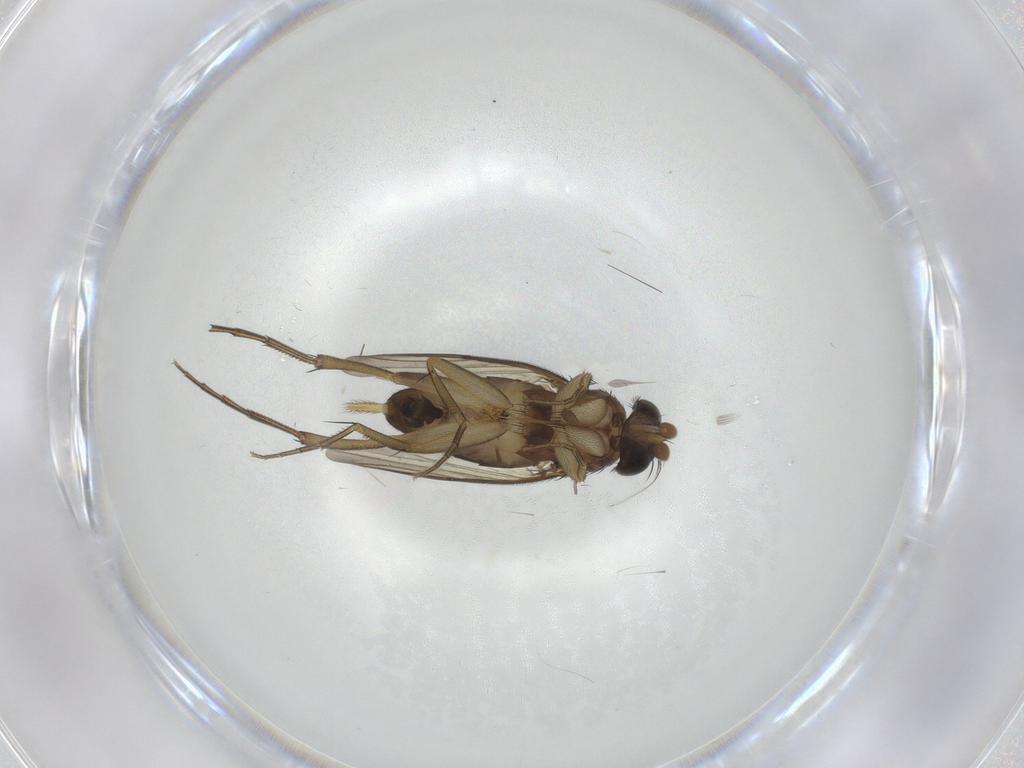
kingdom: Animalia
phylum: Arthropoda
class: Insecta
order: Diptera
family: Phoridae
